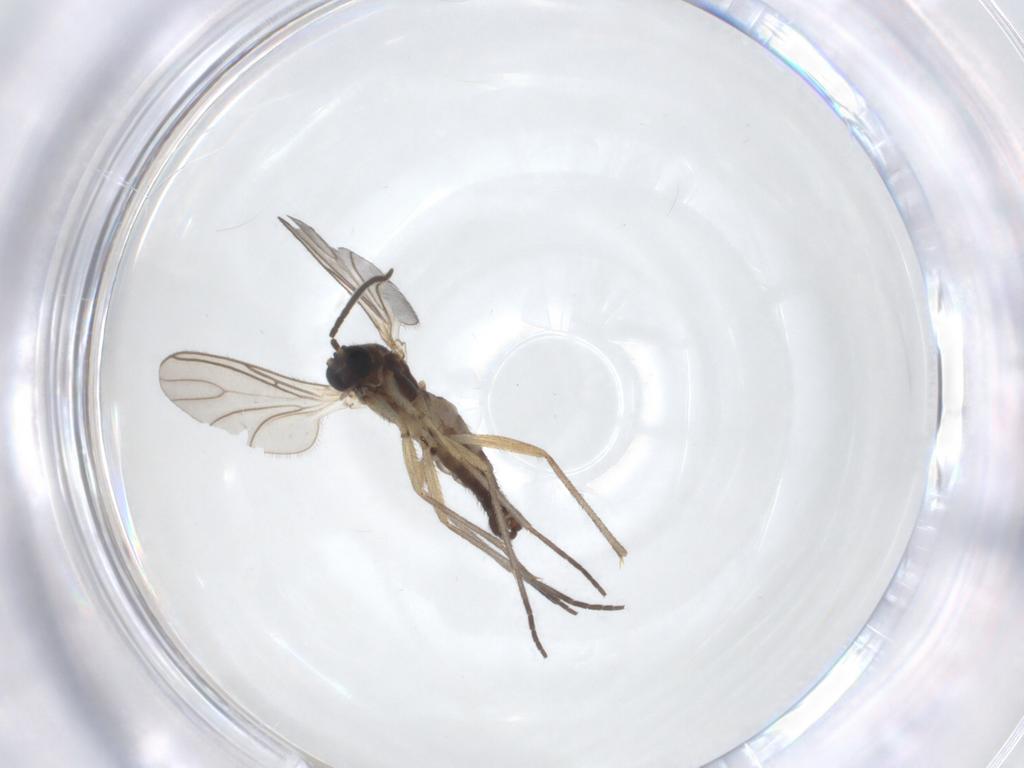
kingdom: Animalia
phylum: Arthropoda
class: Insecta
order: Diptera
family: Sciaridae
